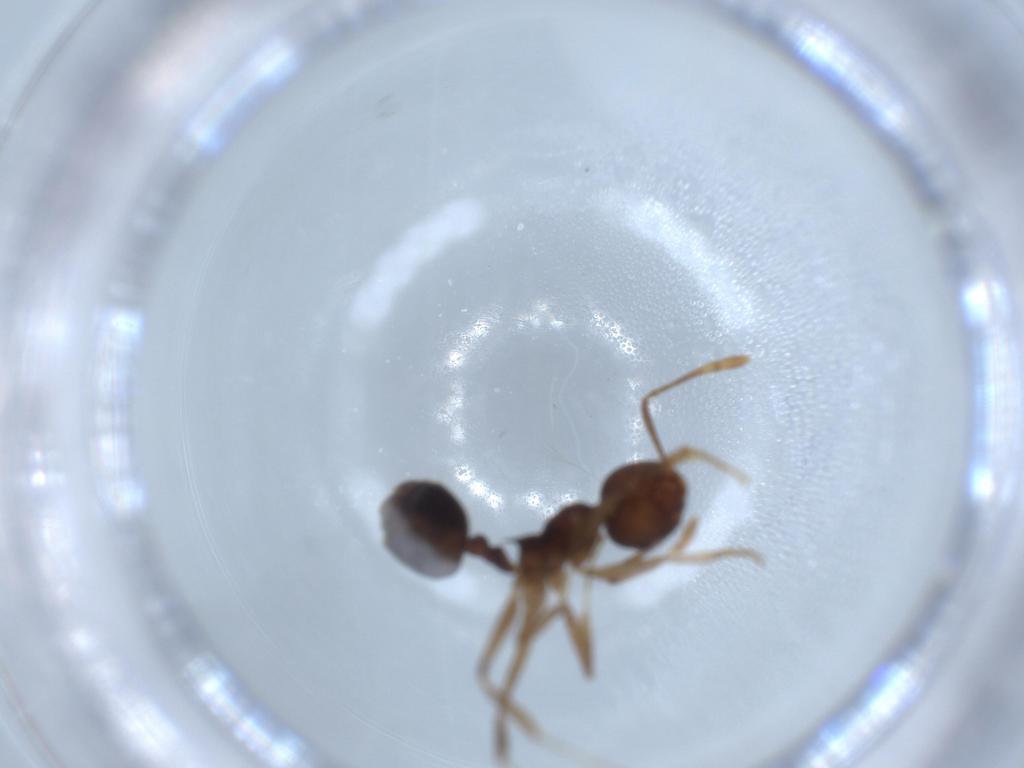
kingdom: Animalia
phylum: Arthropoda
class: Insecta
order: Hymenoptera
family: Formicidae
